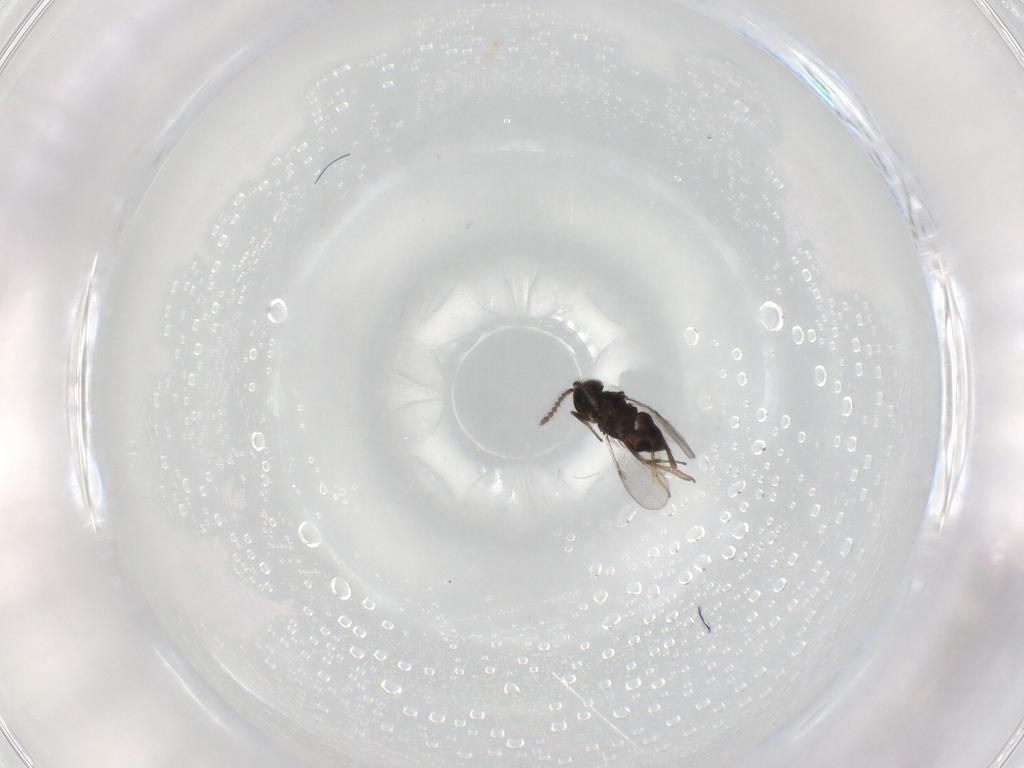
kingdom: Animalia
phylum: Arthropoda
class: Insecta
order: Hymenoptera
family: Encyrtidae
